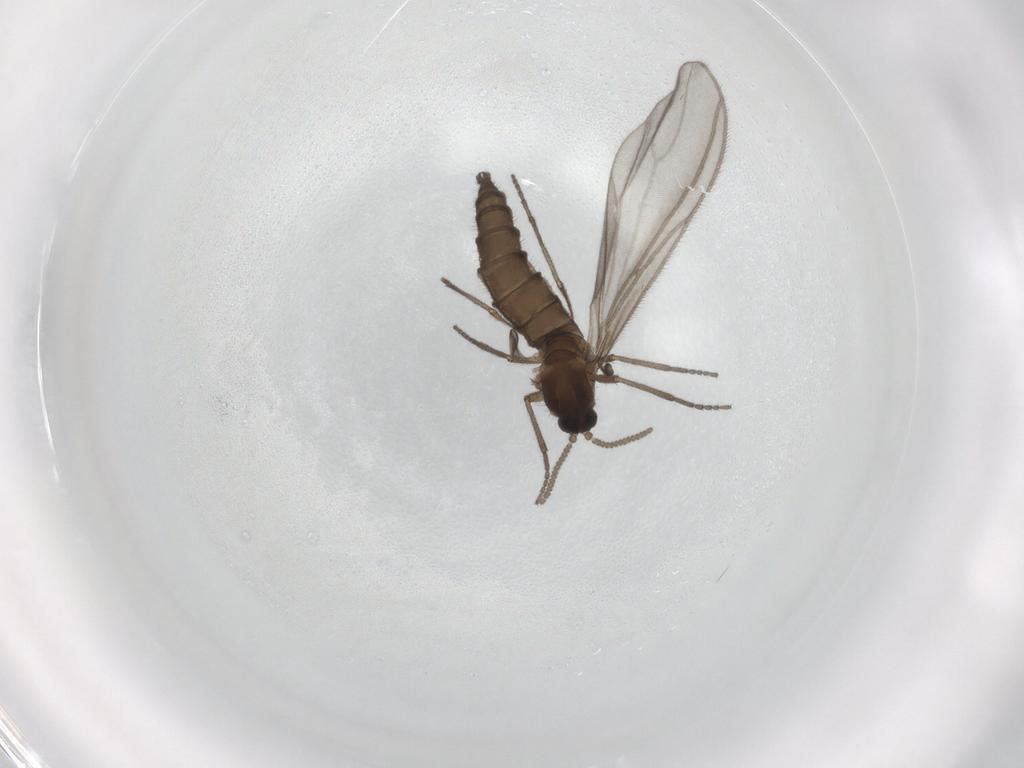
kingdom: Animalia
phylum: Arthropoda
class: Insecta
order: Diptera
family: Sciaridae
